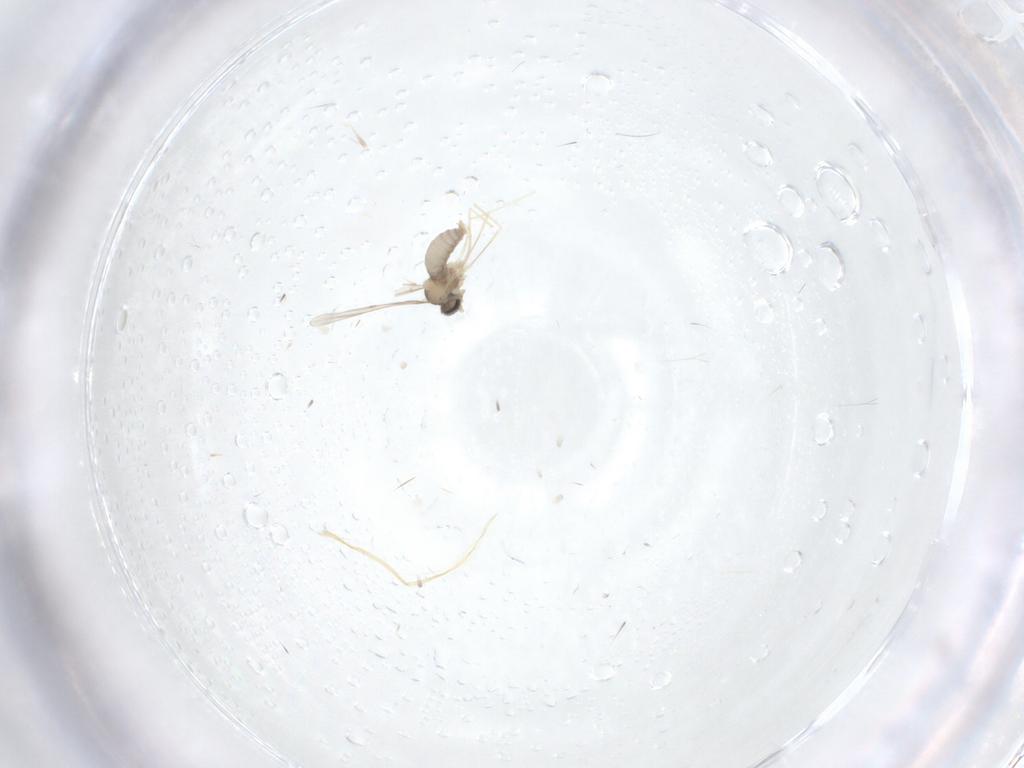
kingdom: Animalia
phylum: Arthropoda
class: Insecta
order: Diptera
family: Cecidomyiidae
